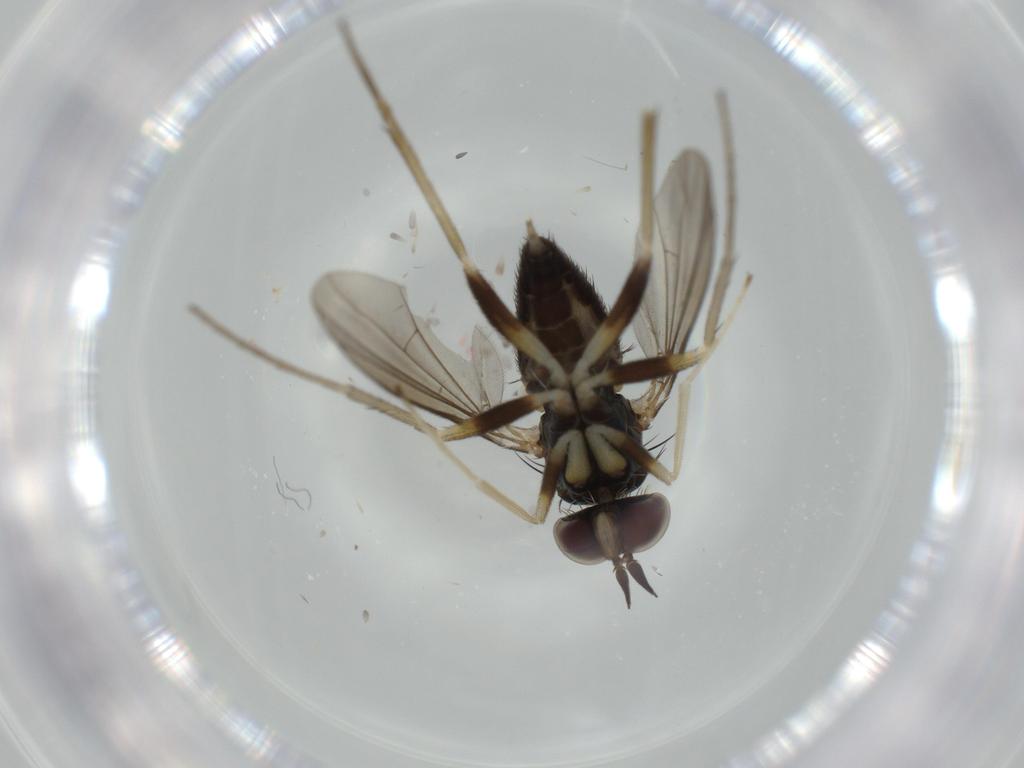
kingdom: Animalia
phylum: Arthropoda
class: Insecta
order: Diptera
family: Dolichopodidae
